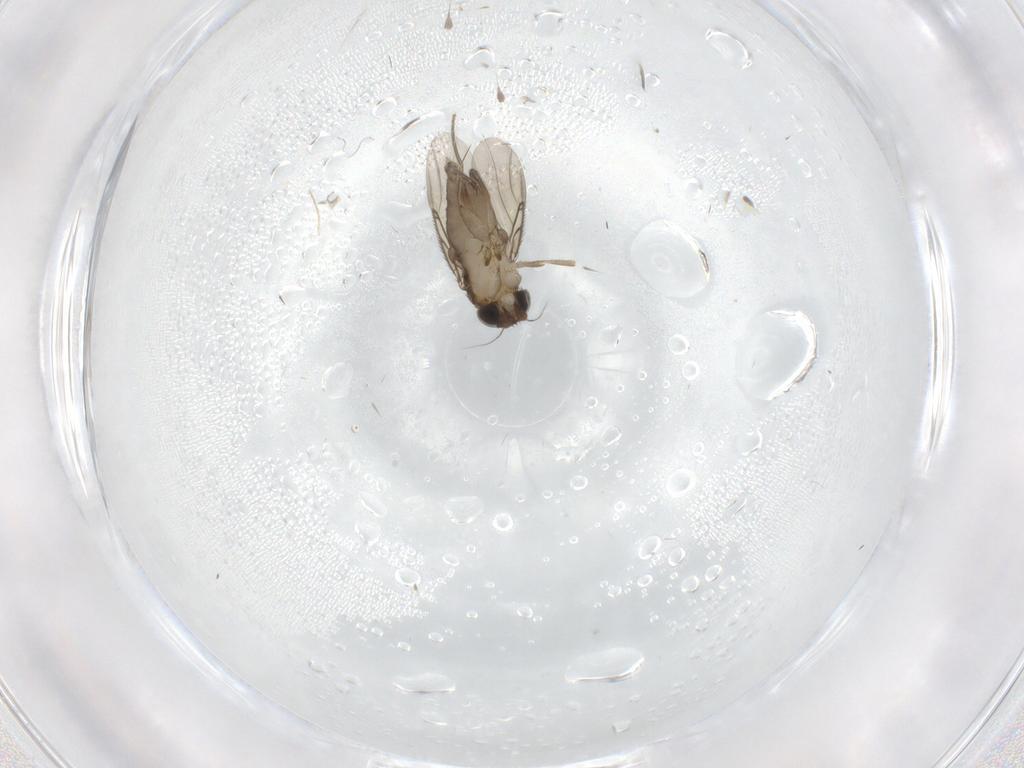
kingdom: Animalia
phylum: Arthropoda
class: Insecta
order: Diptera
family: Phoridae
